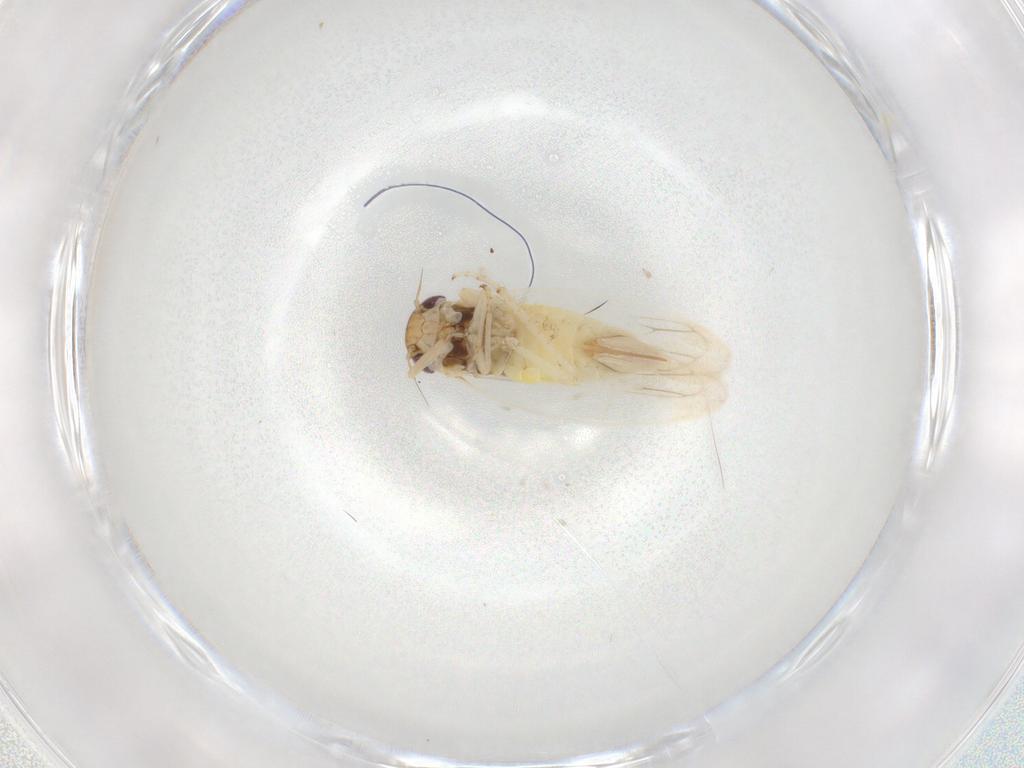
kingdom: Animalia
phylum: Arthropoda
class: Insecta
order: Hemiptera
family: Cicadellidae
